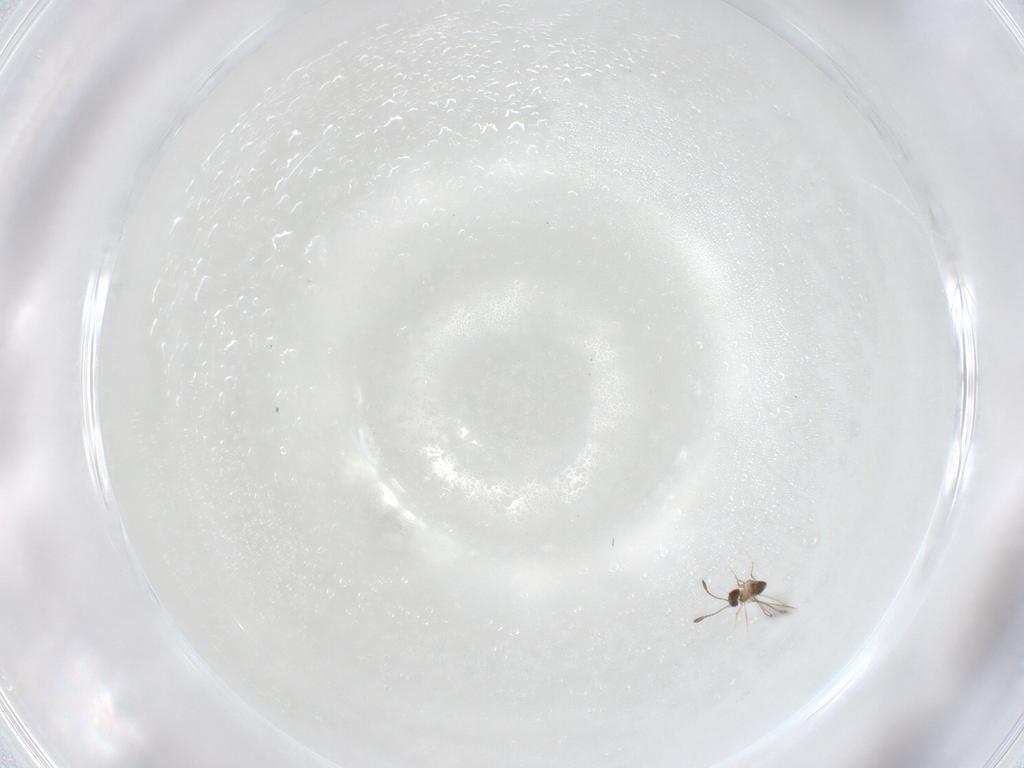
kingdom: Animalia
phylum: Arthropoda
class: Insecta
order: Hymenoptera
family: Mymaridae
